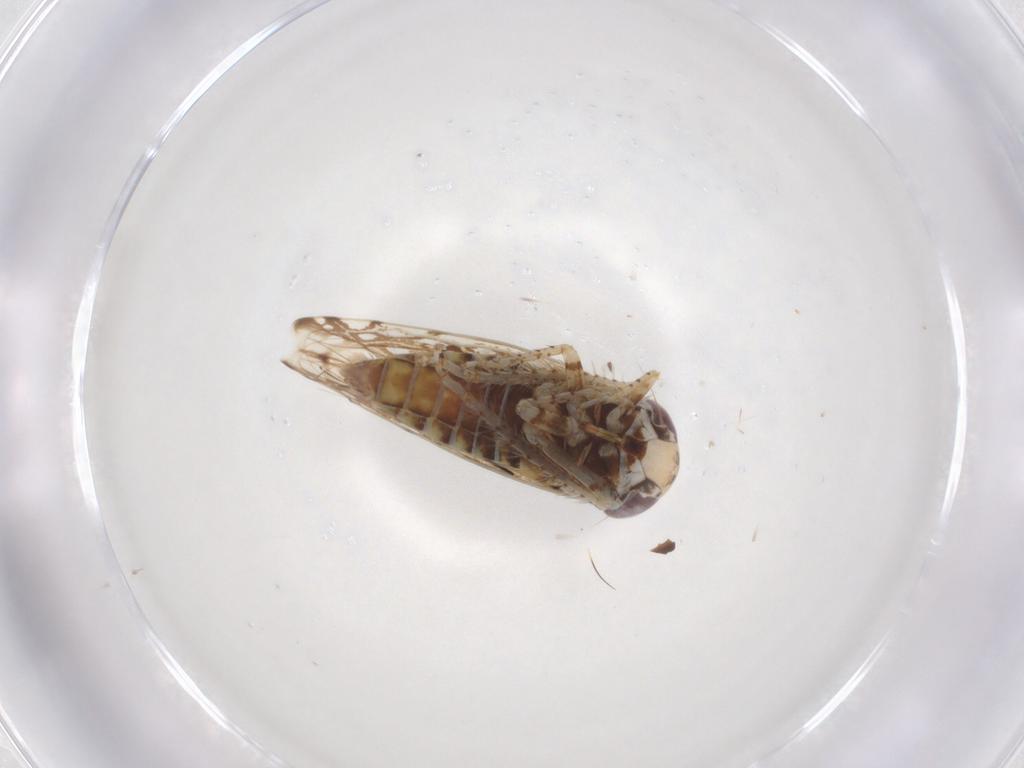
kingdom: Animalia
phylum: Arthropoda
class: Insecta
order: Hemiptera
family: Cicadellidae
